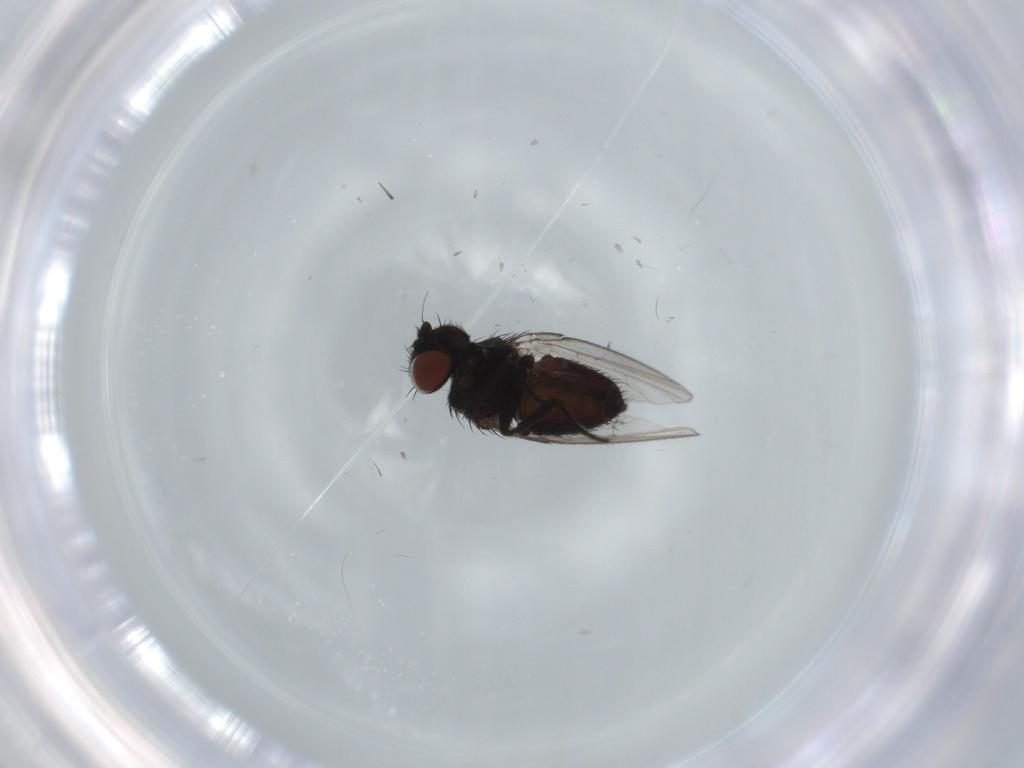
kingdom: Animalia
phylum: Arthropoda
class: Insecta
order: Diptera
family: Milichiidae
